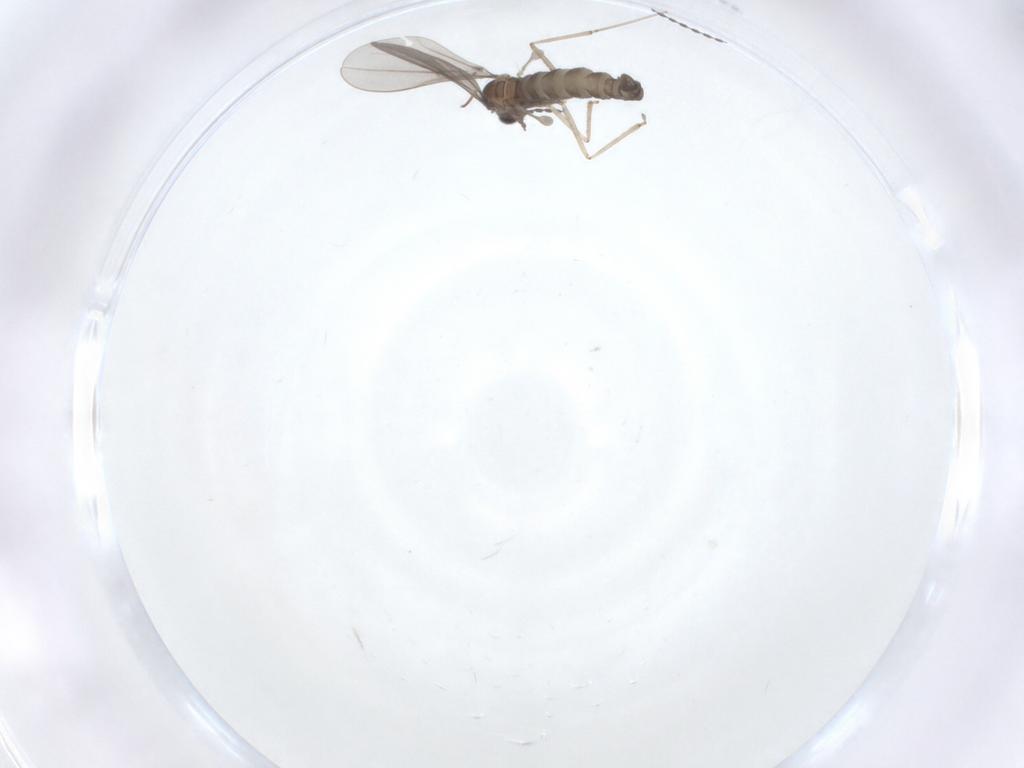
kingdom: Animalia
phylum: Arthropoda
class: Insecta
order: Diptera
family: Cecidomyiidae
